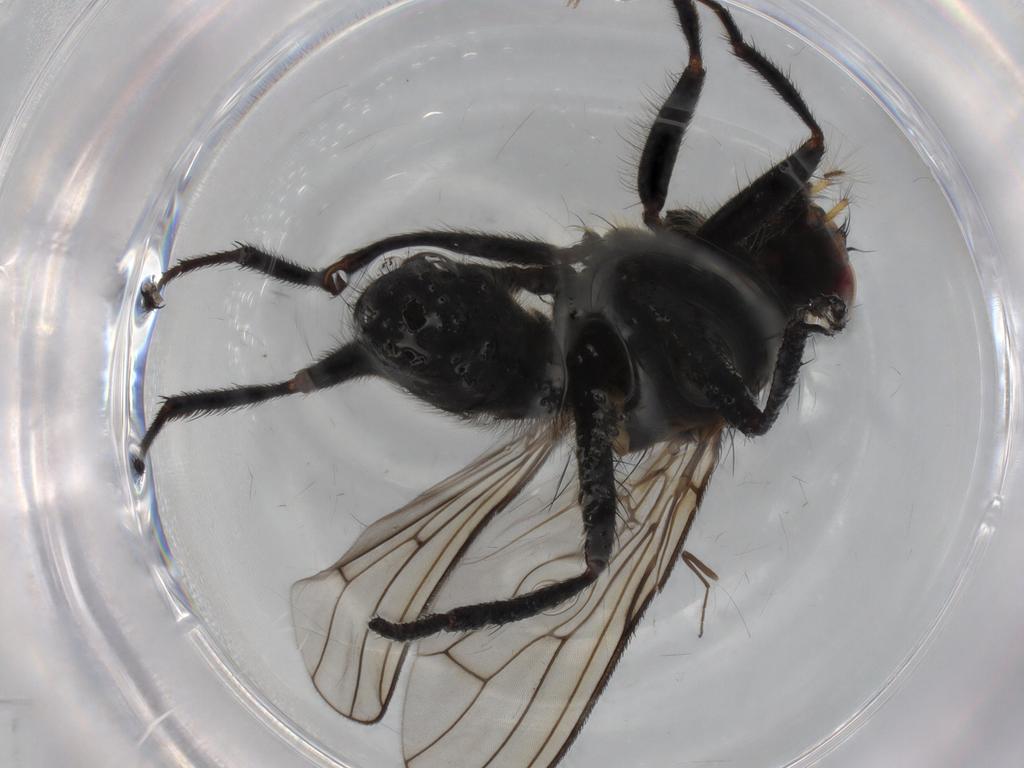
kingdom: Animalia
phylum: Arthropoda
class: Insecta
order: Diptera
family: Scathophagidae
